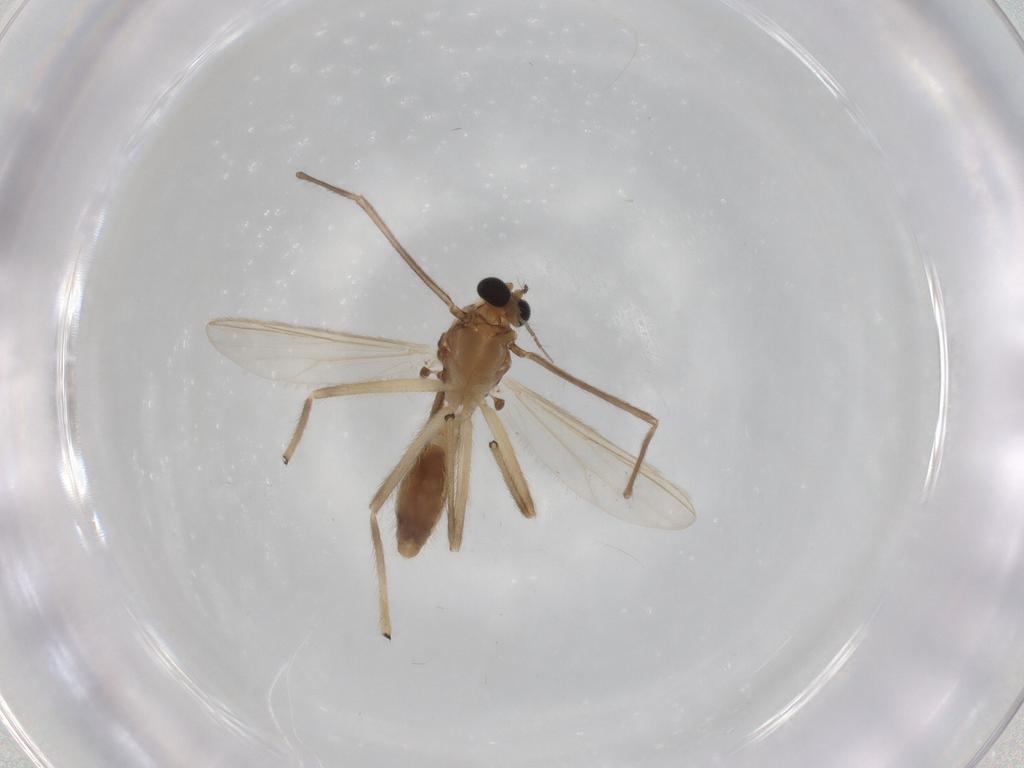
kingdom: Animalia
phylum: Arthropoda
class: Insecta
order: Diptera
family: Chironomidae
